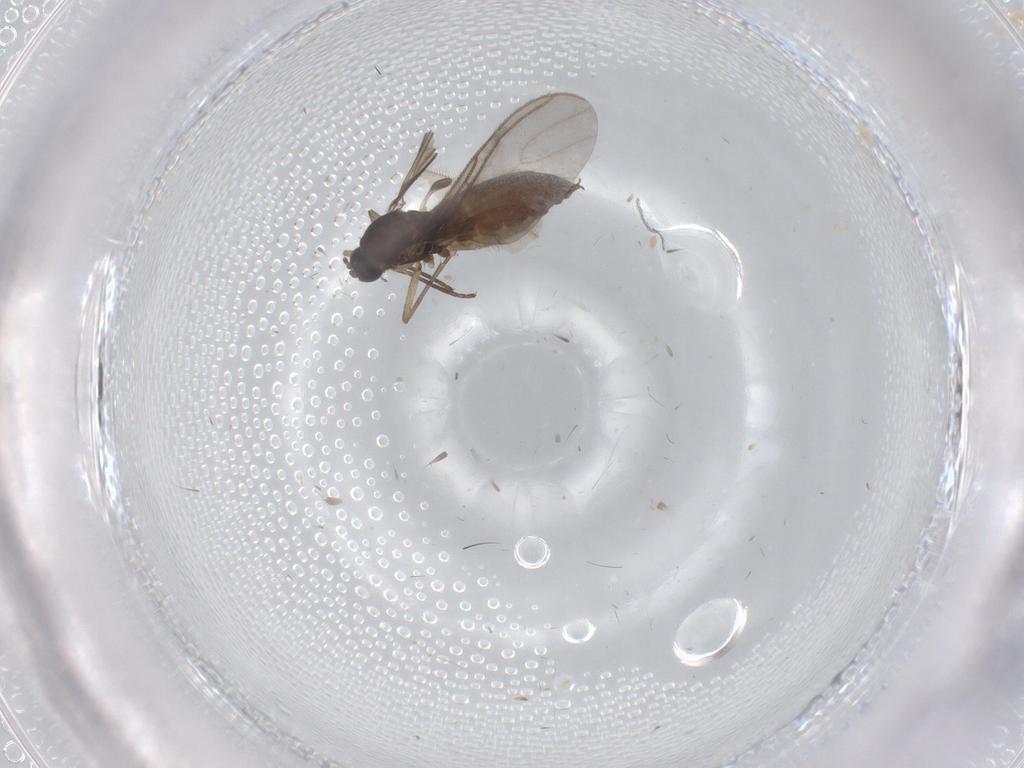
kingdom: Animalia
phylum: Arthropoda
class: Insecta
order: Diptera
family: Sciaridae
